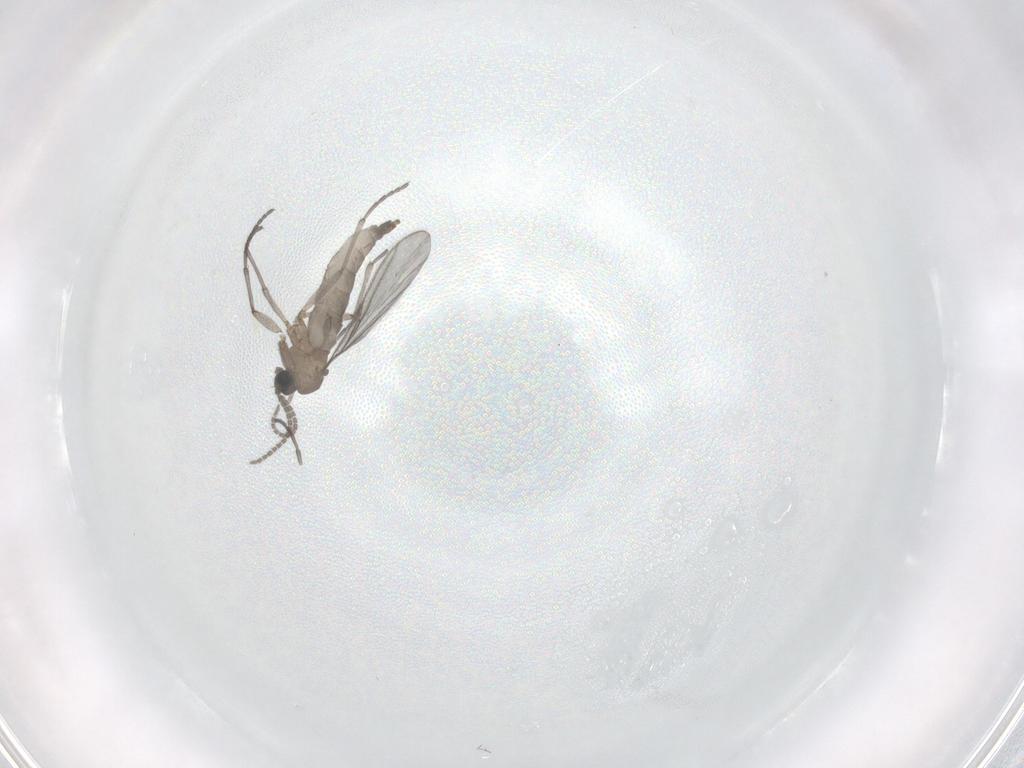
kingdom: Animalia
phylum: Arthropoda
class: Insecta
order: Diptera
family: Sciaridae
